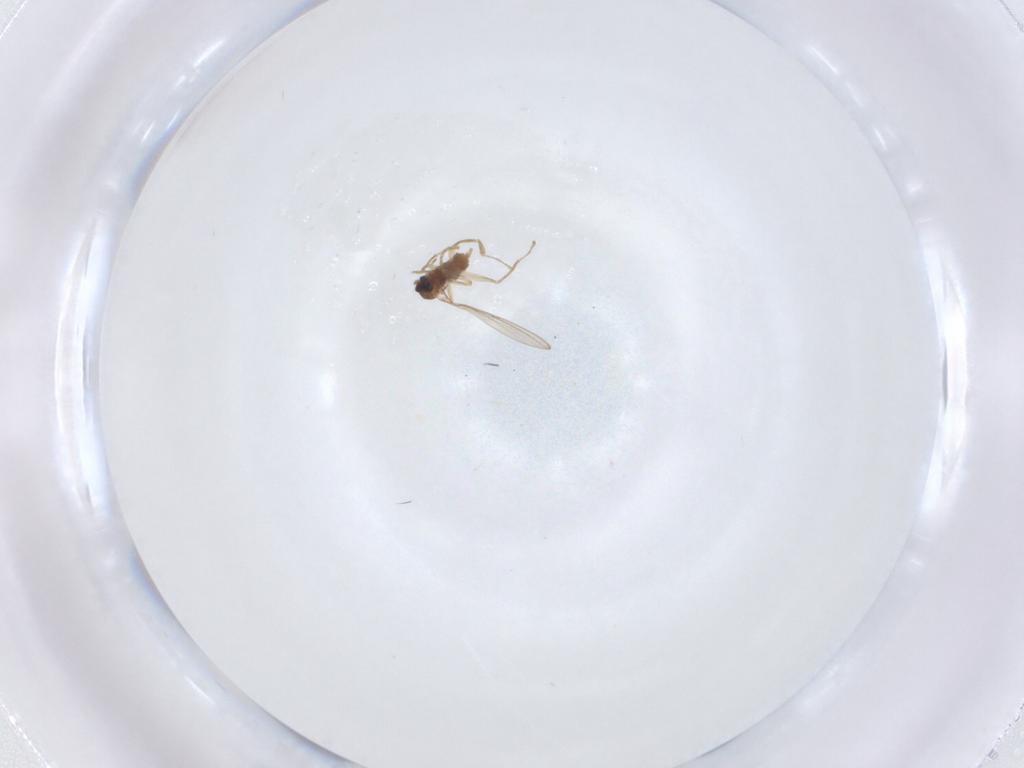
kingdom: Animalia
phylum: Arthropoda
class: Insecta
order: Diptera
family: Cecidomyiidae
